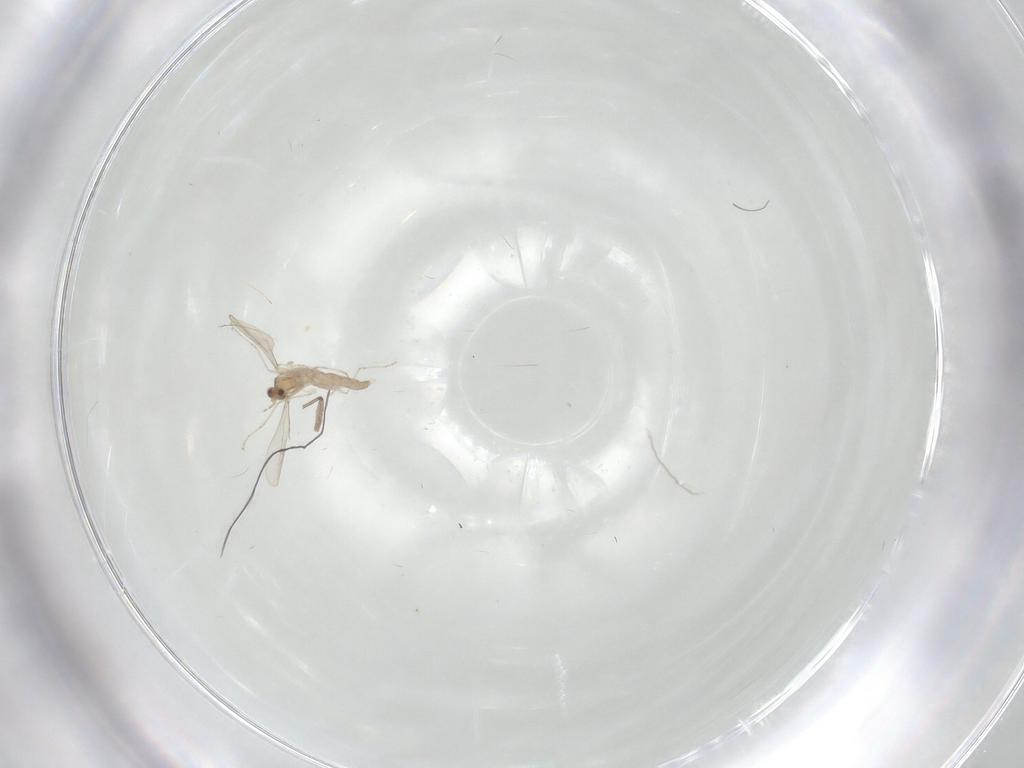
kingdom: Animalia
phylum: Arthropoda
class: Insecta
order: Diptera
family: Cecidomyiidae
